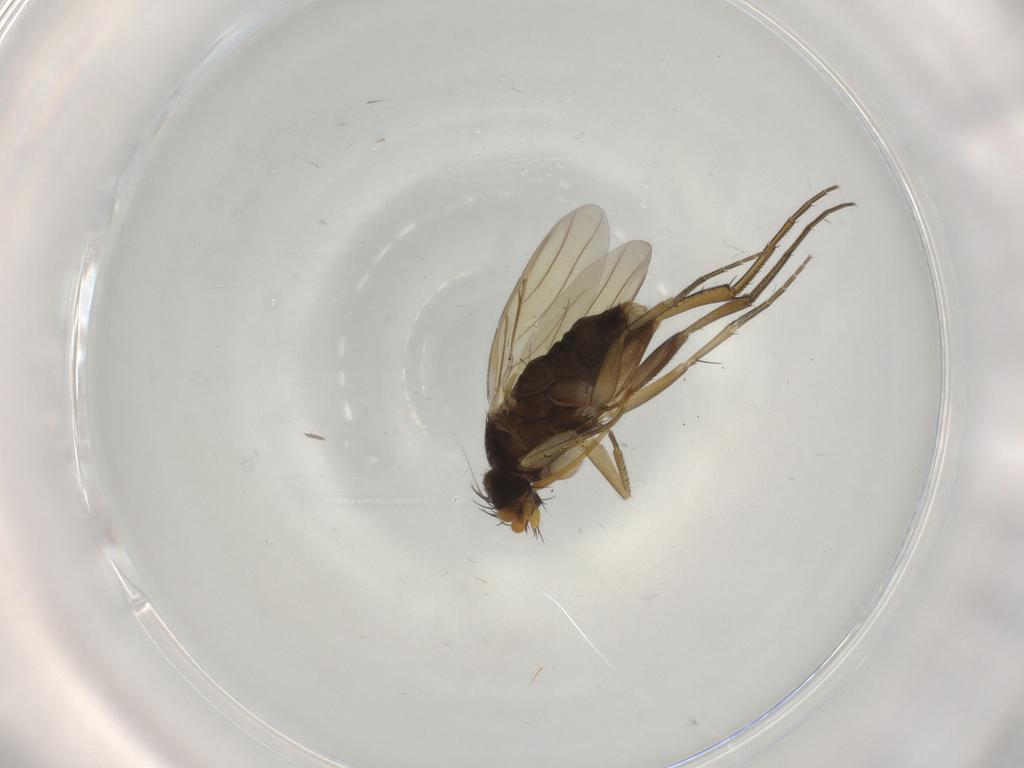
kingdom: Animalia
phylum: Arthropoda
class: Insecta
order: Diptera
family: Phoridae
